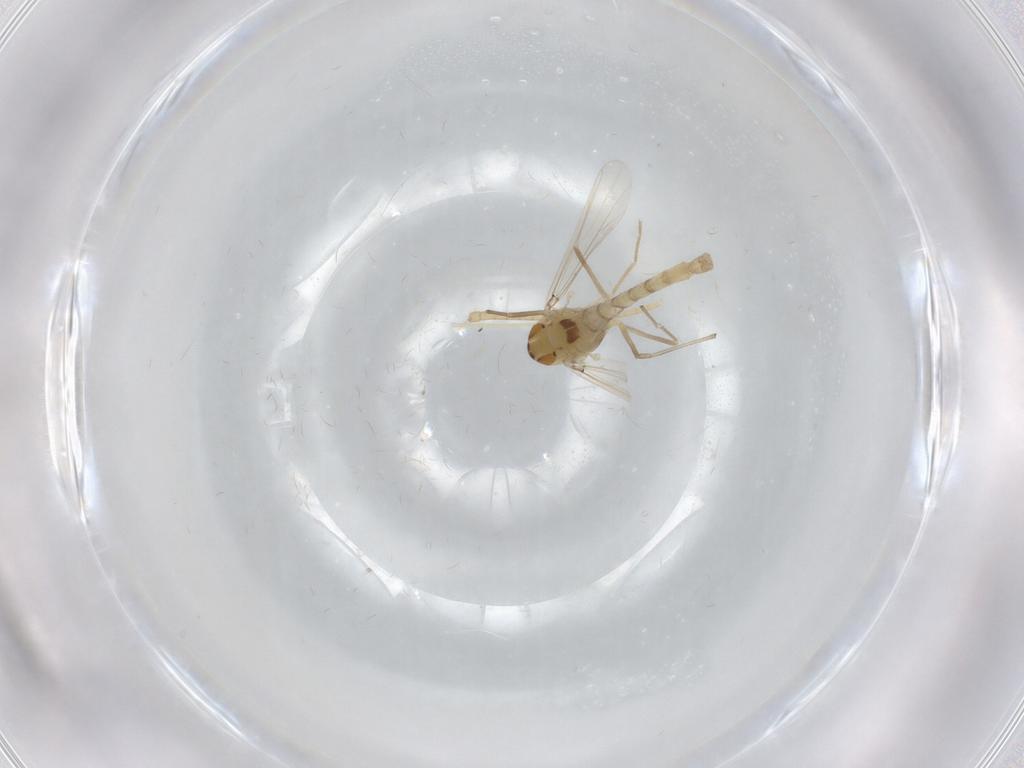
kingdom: Animalia
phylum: Arthropoda
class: Insecta
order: Diptera
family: Chironomidae
